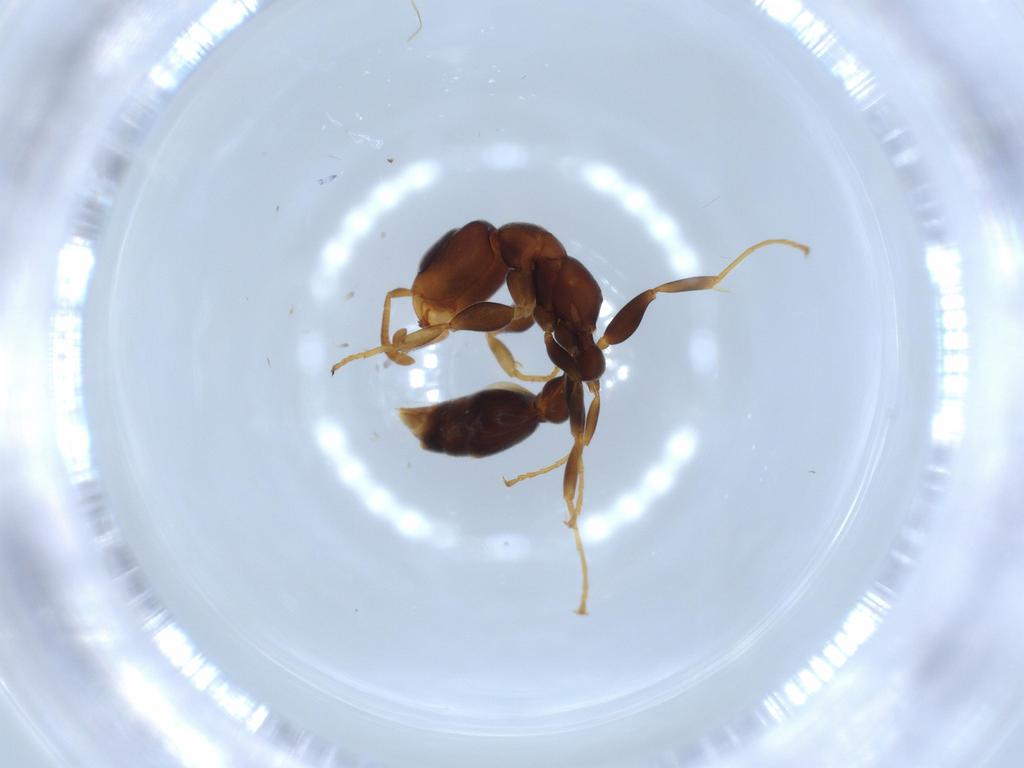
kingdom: Animalia
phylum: Arthropoda
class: Insecta
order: Hymenoptera
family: Formicidae
